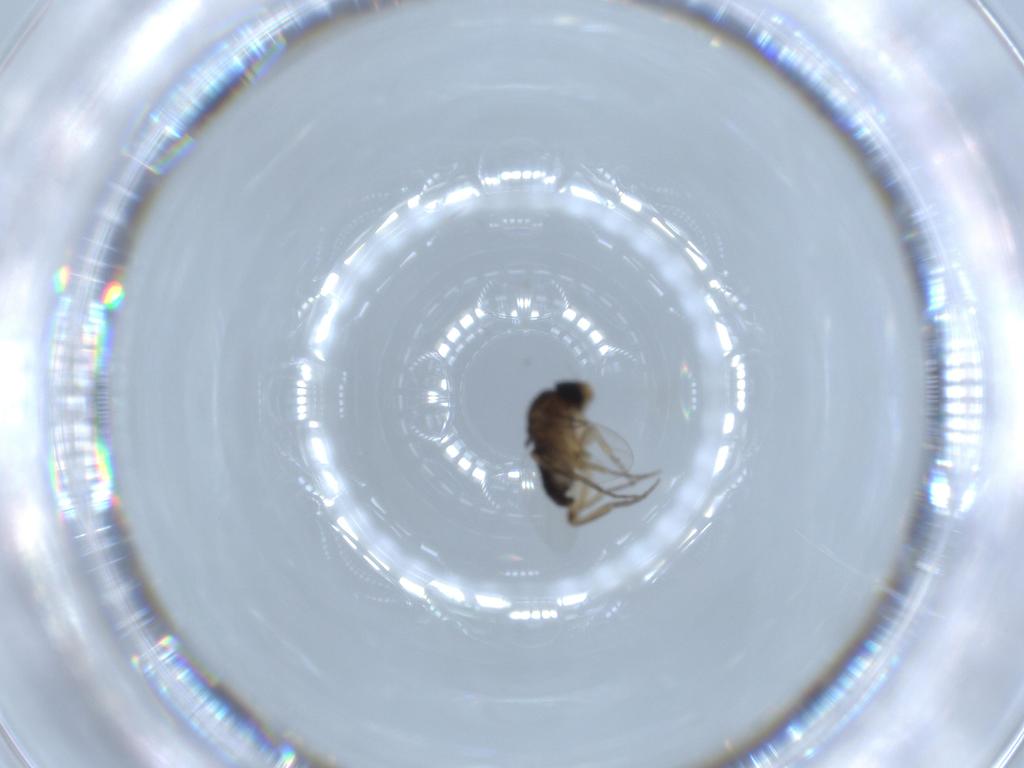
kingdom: Animalia
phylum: Arthropoda
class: Insecta
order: Diptera
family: Phoridae
